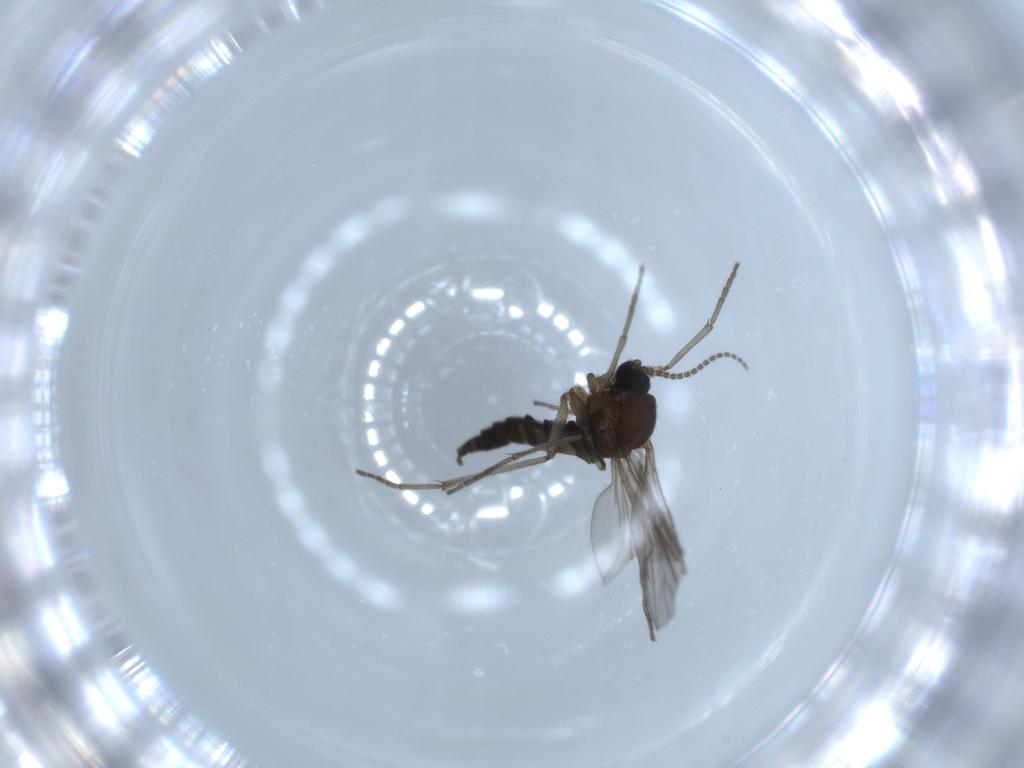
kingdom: Animalia
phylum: Arthropoda
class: Insecta
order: Diptera
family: Sciaridae
